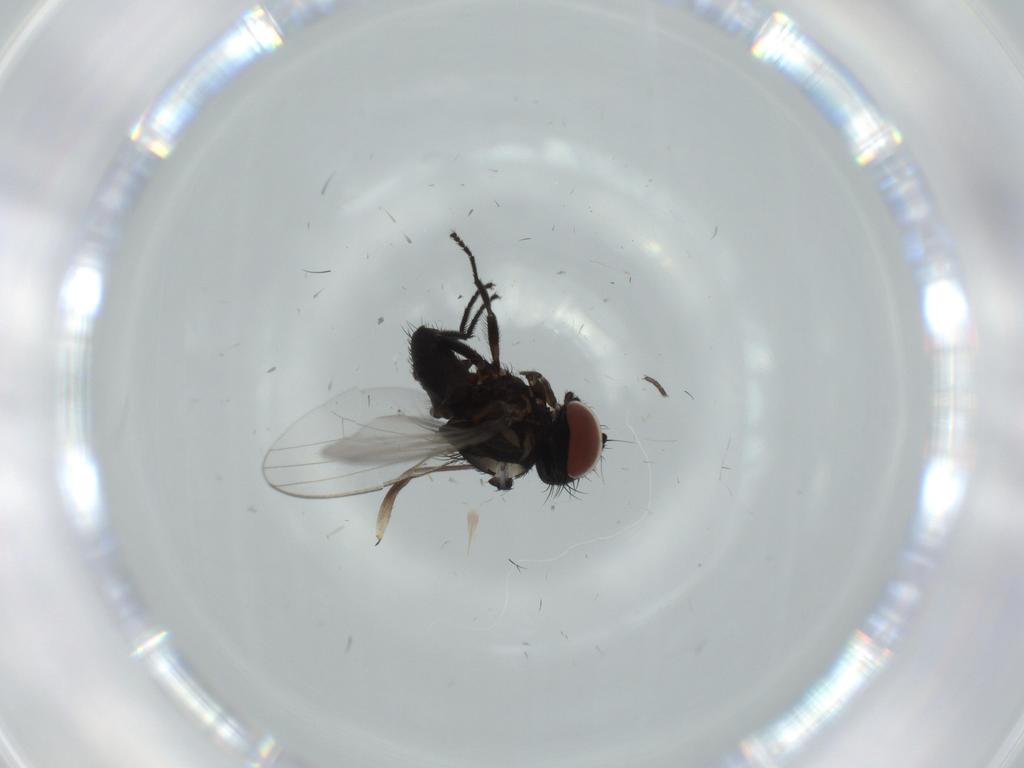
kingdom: Animalia
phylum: Arthropoda
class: Insecta
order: Diptera
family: Milichiidae
